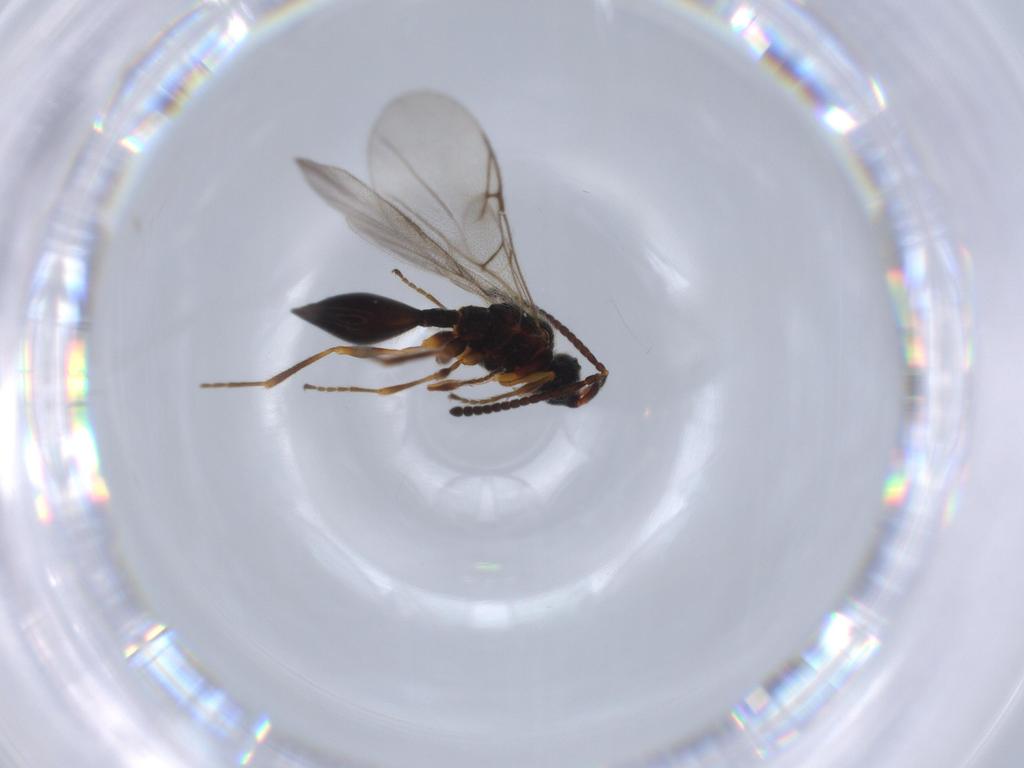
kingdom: Animalia
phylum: Arthropoda
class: Insecta
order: Hymenoptera
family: Diapriidae
